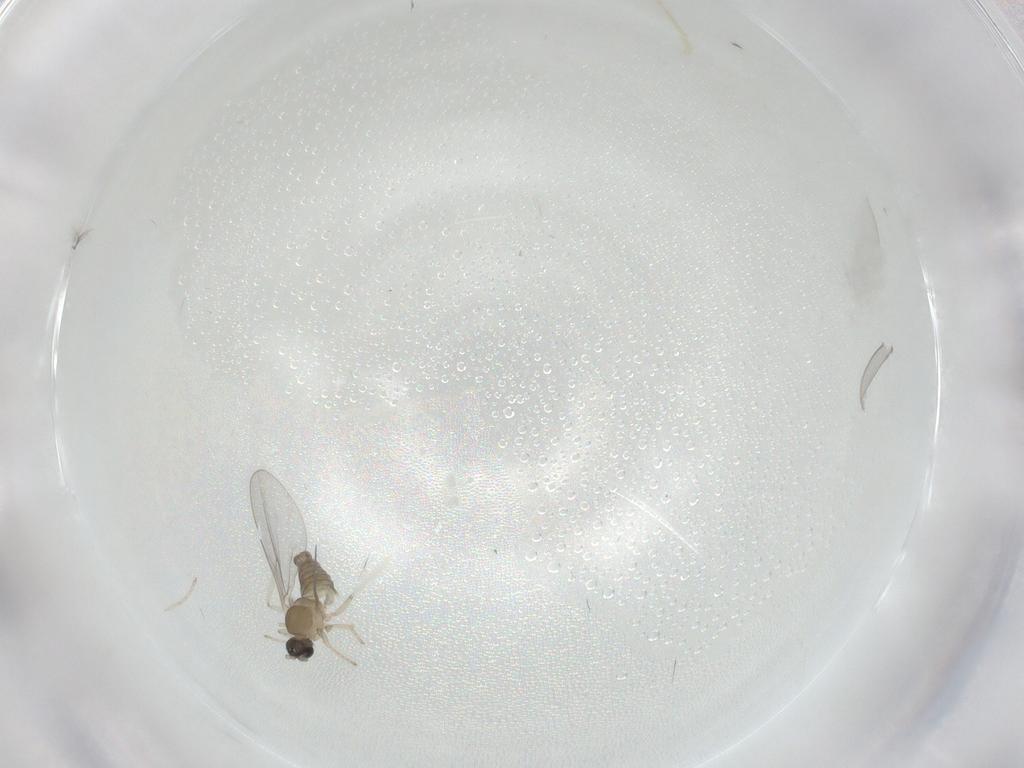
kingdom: Animalia
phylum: Arthropoda
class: Insecta
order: Diptera
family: Cecidomyiidae
